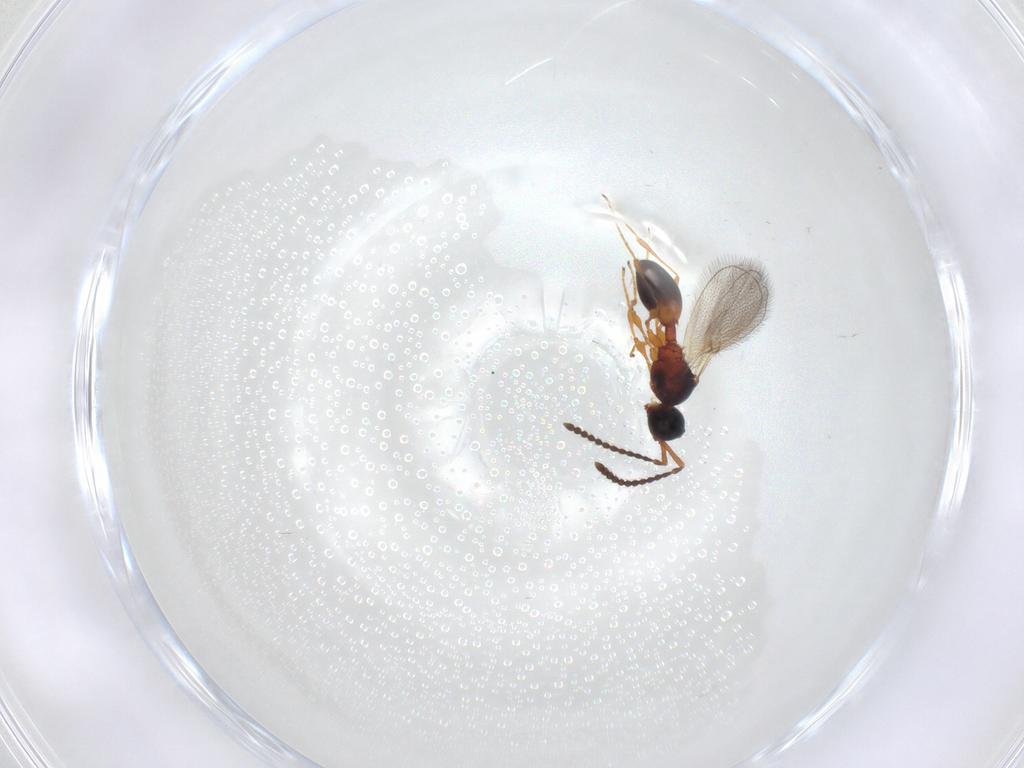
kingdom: Animalia
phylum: Arthropoda
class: Insecta
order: Hymenoptera
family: Diapriidae
